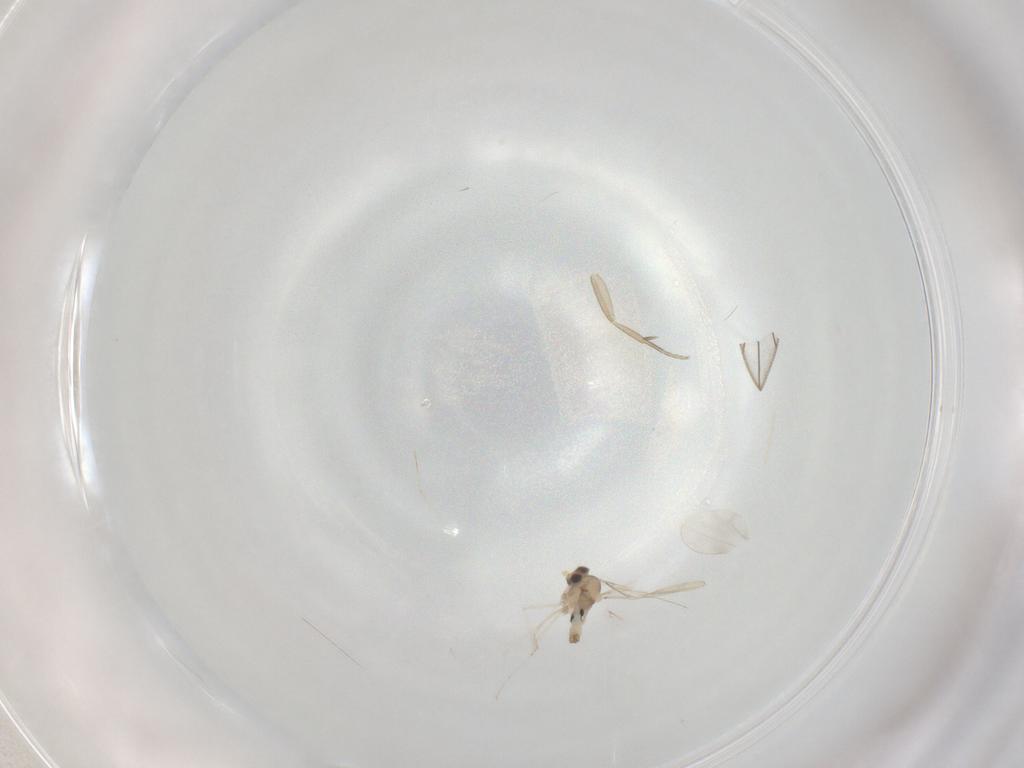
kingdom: Animalia
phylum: Arthropoda
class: Insecta
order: Diptera
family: Cecidomyiidae
